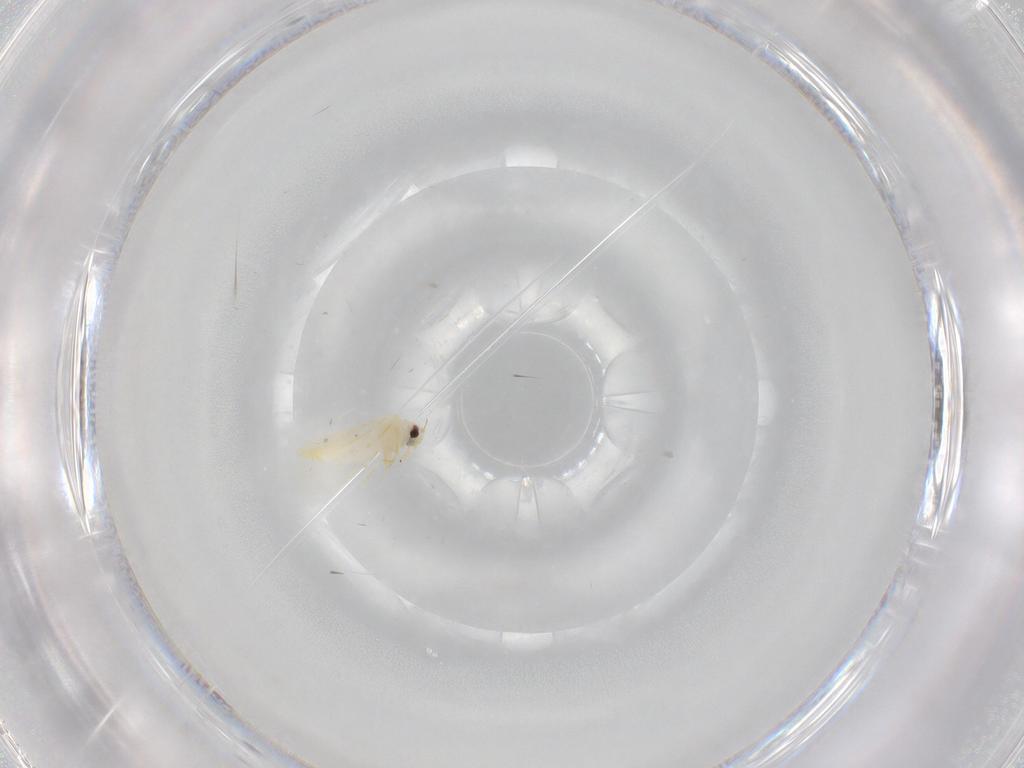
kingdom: Animalia
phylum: Arthropoda
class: Insecta
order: Hemiptera
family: Aleyrodidae
